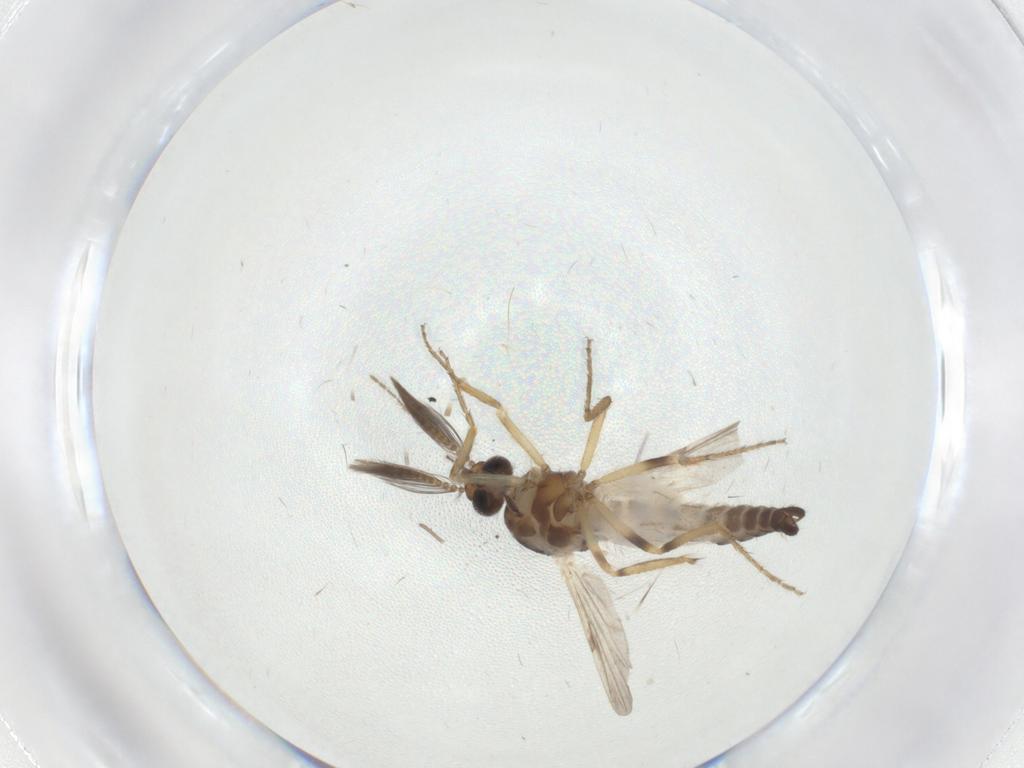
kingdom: Animalia
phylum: Arthropoda
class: Insecta
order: Diptera
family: Ceratopogonidae
